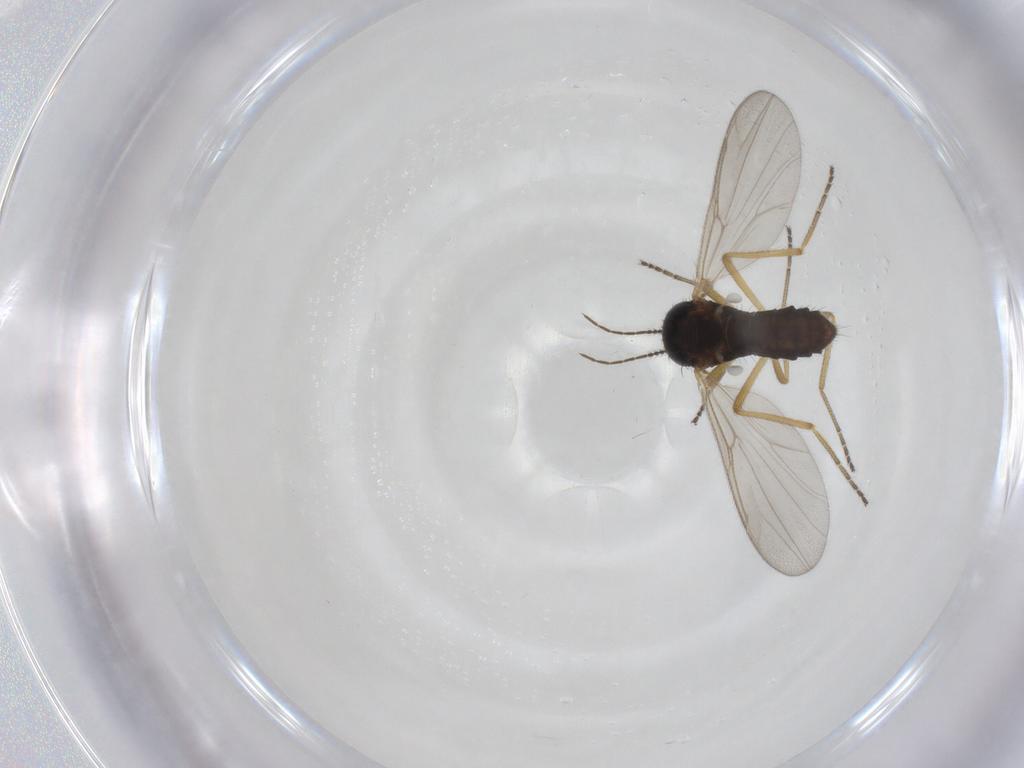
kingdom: Animalia
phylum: Arthropoda
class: Insecta
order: Diptera
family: Ceratopogonidae
